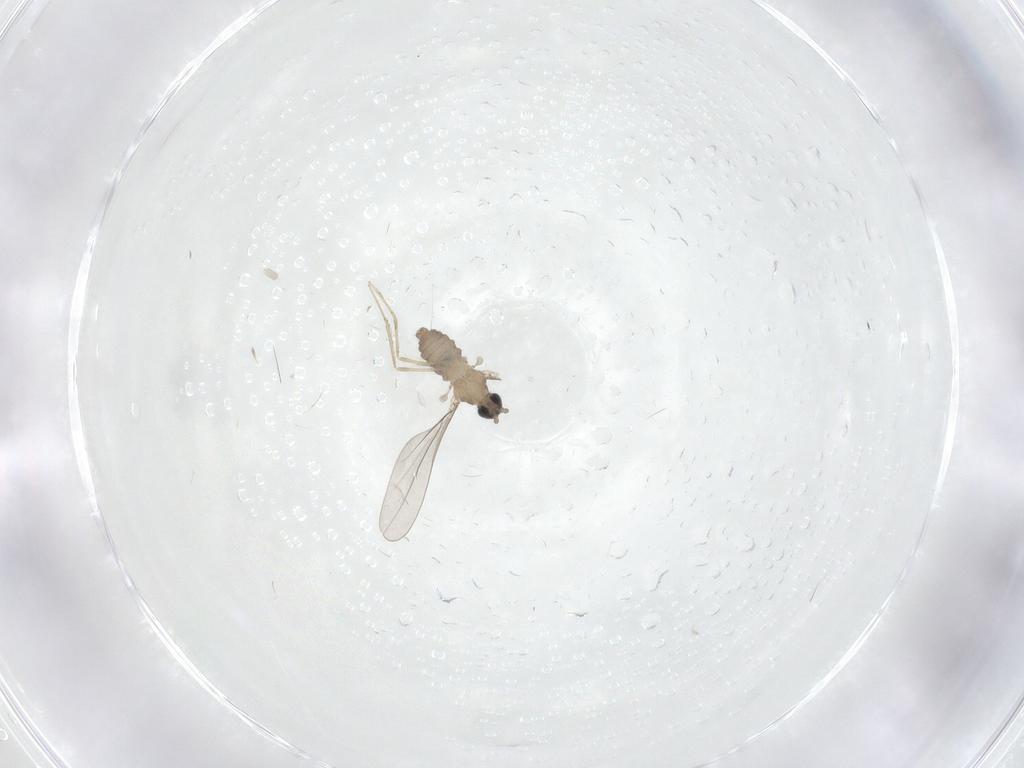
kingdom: Animalia
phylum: Arthropoda
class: Insecta
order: Diptera
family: Cecidomyiidae
